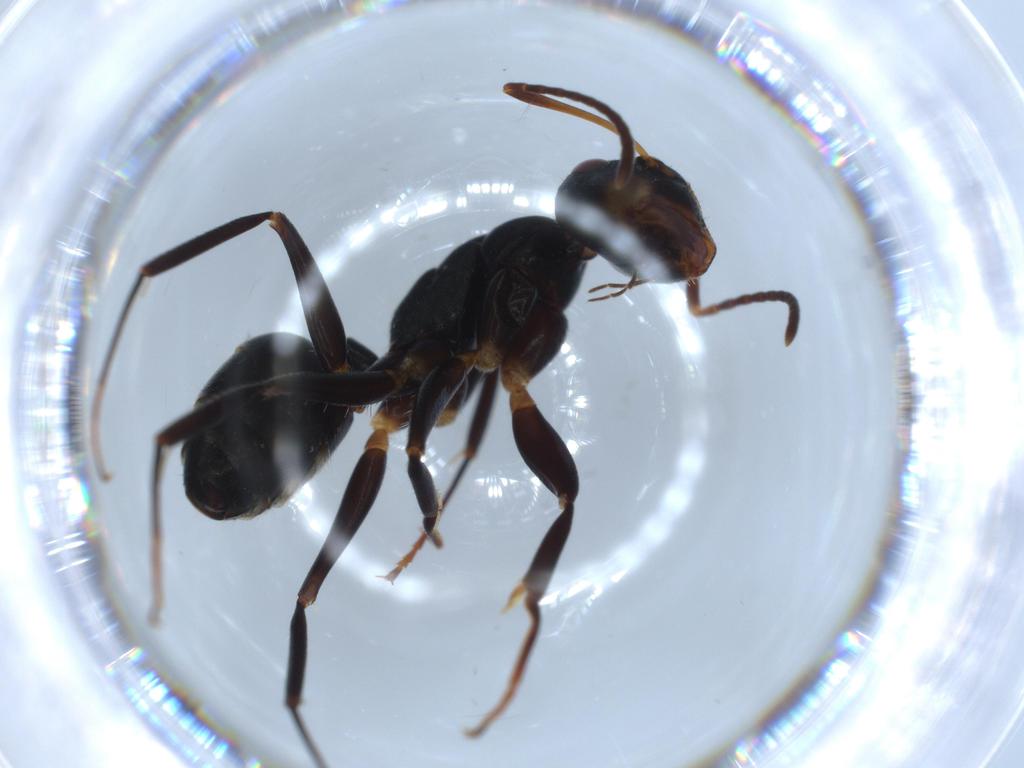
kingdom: Animalia
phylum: Arthropoda
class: Insecta
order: Hymenoptera
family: Formicidae
